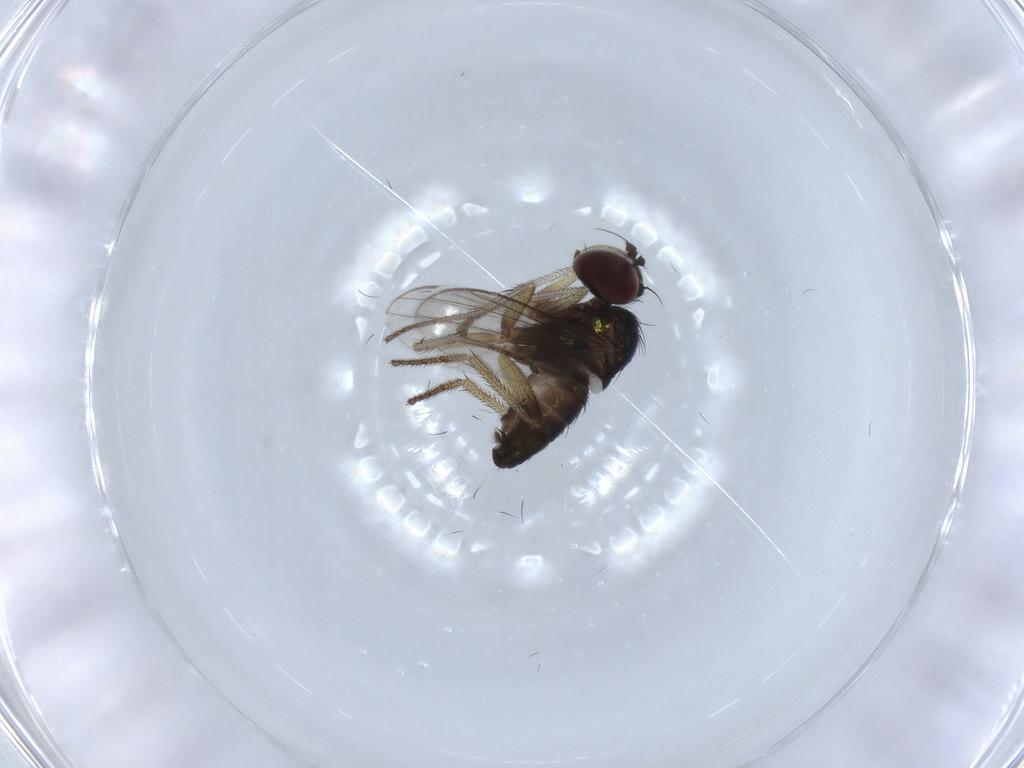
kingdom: Animalia
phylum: Arthropoda
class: Insecta
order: Diptera
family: Dolichopodidae
